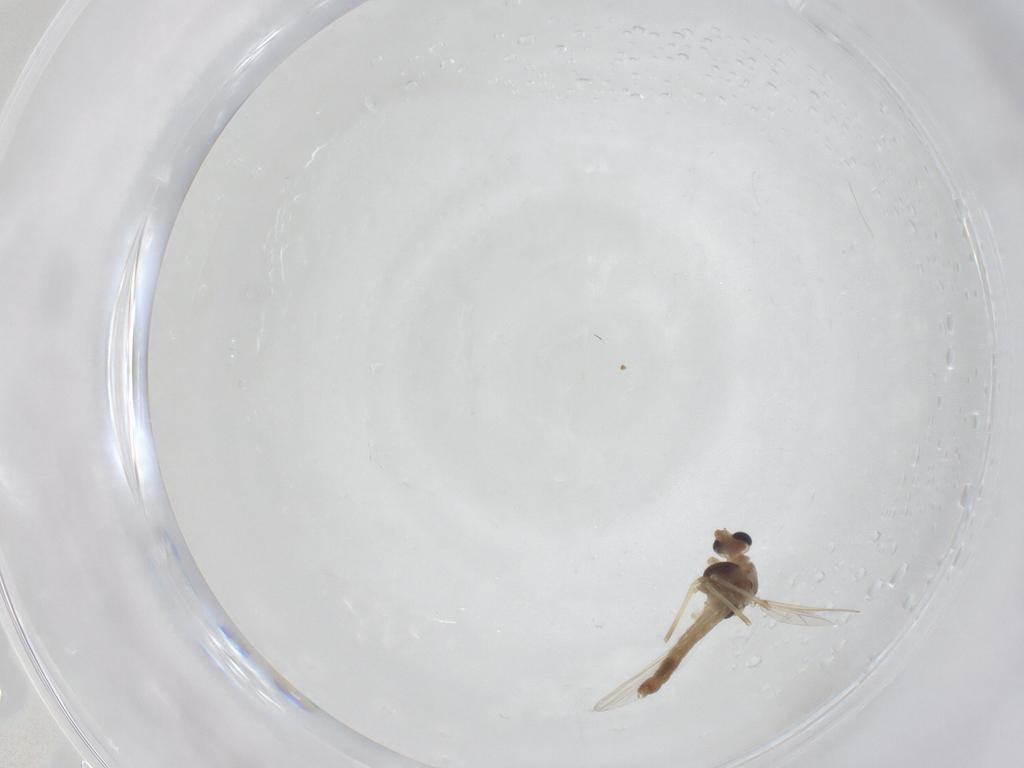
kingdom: Animalia
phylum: Arthropoda
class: Insecta
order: Diptera
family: Chironomidae
